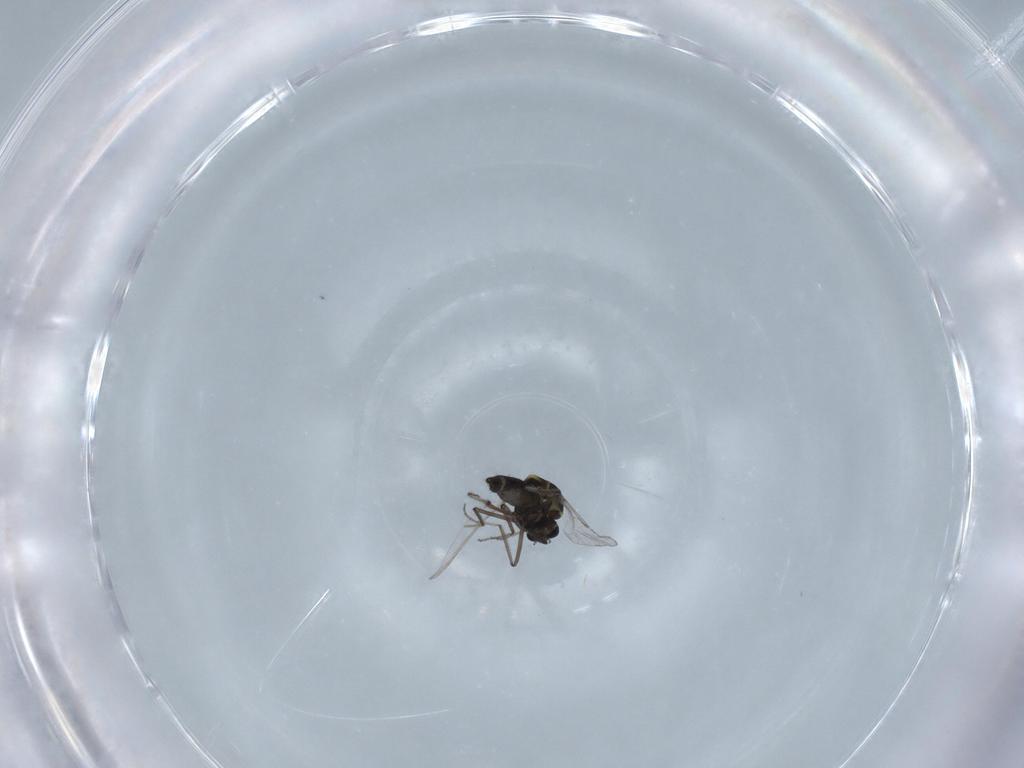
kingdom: Animalia
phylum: Arthropoda
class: Insecta
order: Diptera
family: Ceratopogonidae
